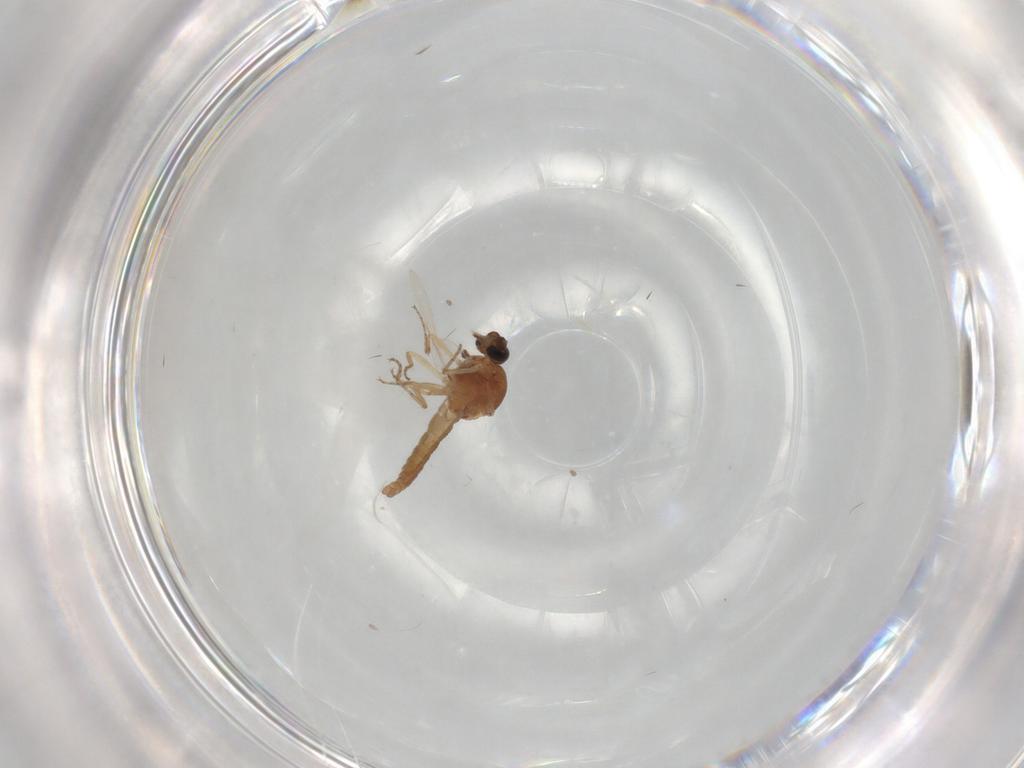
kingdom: Animalia
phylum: Arthropoda
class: Insecta
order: Diptera
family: Ceratopogonidae
